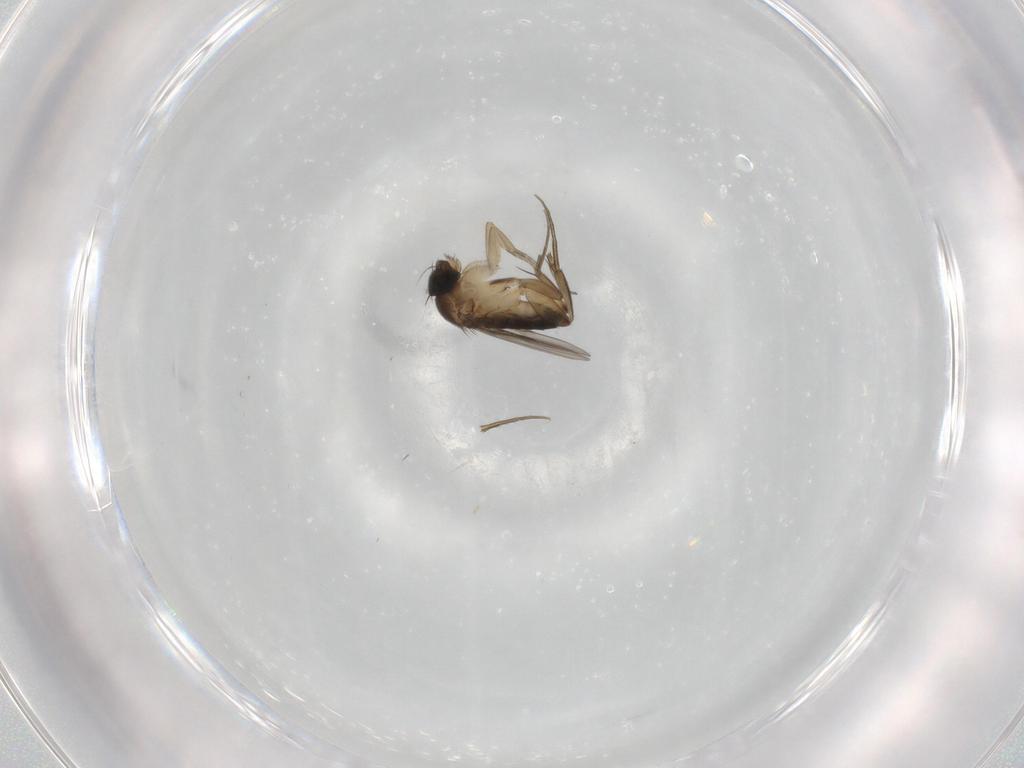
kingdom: Animalia
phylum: Arthropoda
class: Insecta
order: Diptera
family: Phoridae
